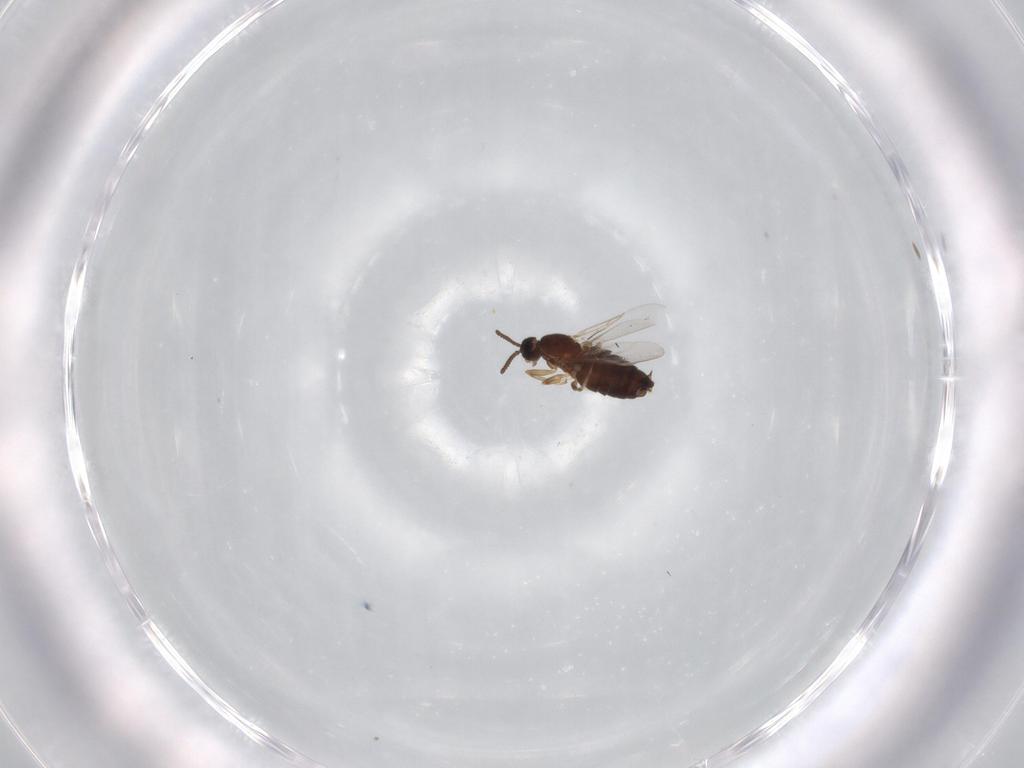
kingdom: Animalia
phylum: Arthropoda
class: Insecta
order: Diptera
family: Scatopsidae
